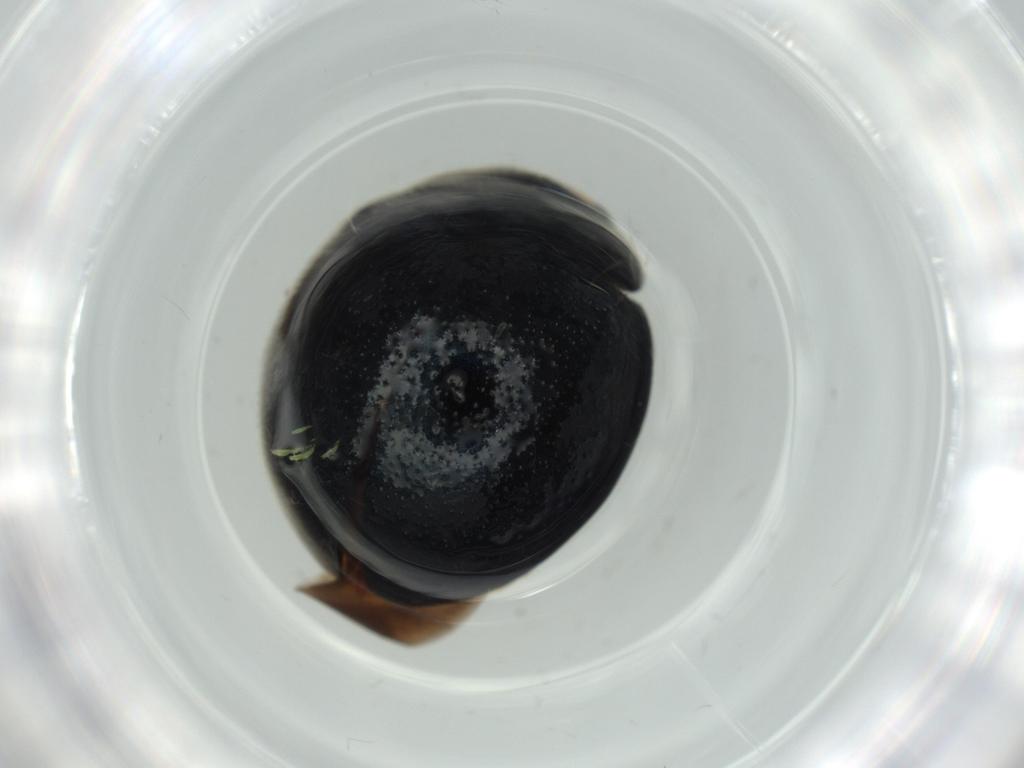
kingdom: Animalia
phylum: Arthropoda
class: Insecta
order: Coleoptera
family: Coccinellidae
